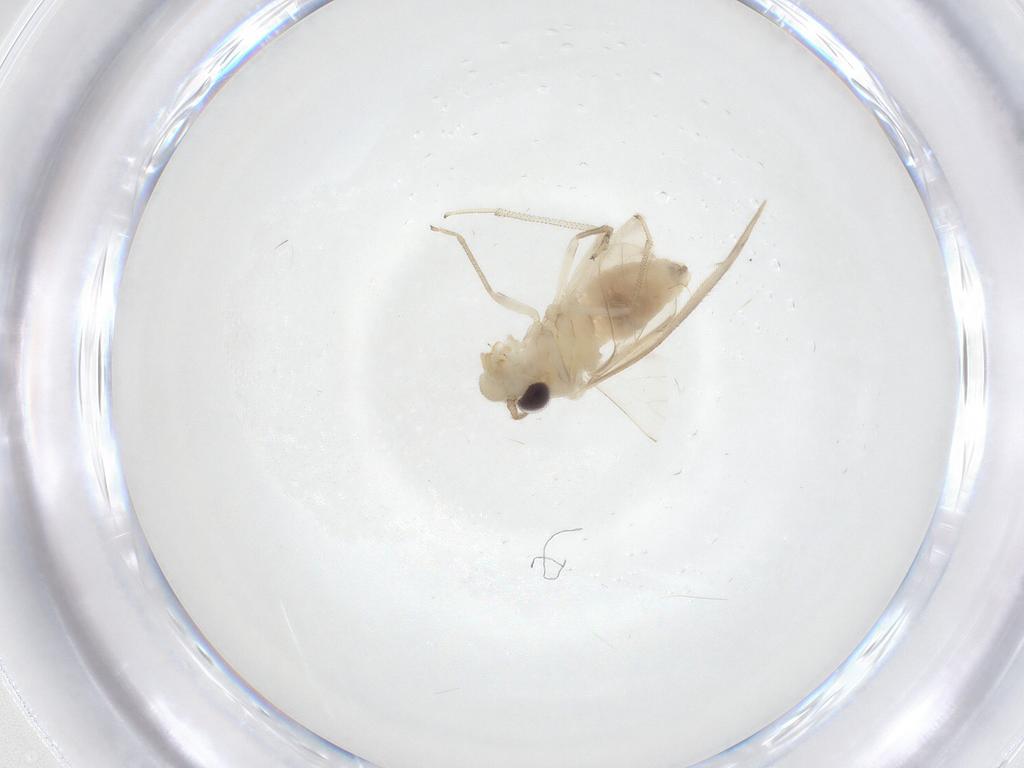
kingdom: Animalia
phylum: Arthropoda
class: Insecta
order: Psocodea
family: Caeciliusidae
